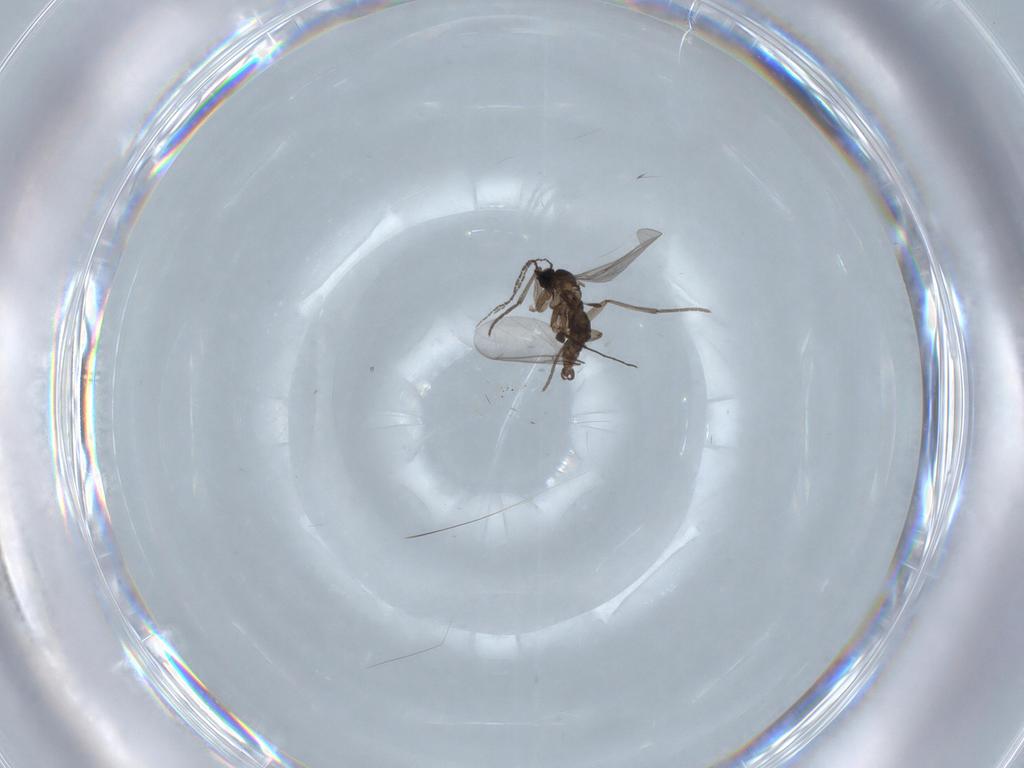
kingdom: Animalia
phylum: Arthropoda
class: Insecta
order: Diptera
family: Sciaridae
